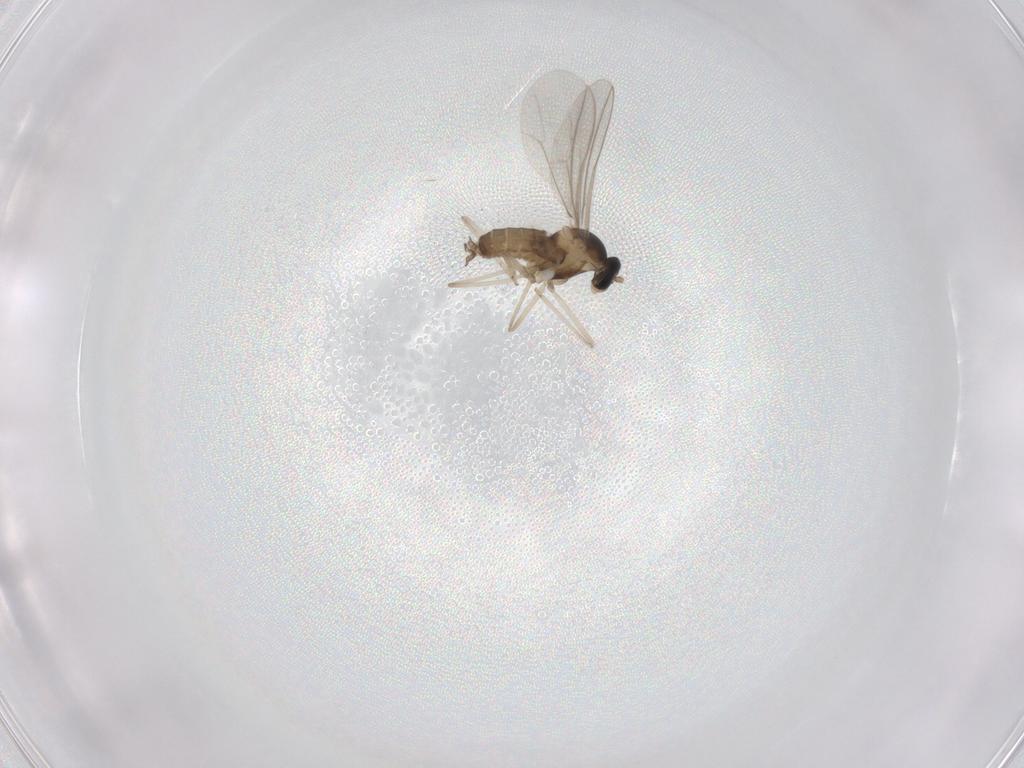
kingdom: Animalia
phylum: Arthropoda
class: Insecta
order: Diptera
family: Cecidomyiidae
